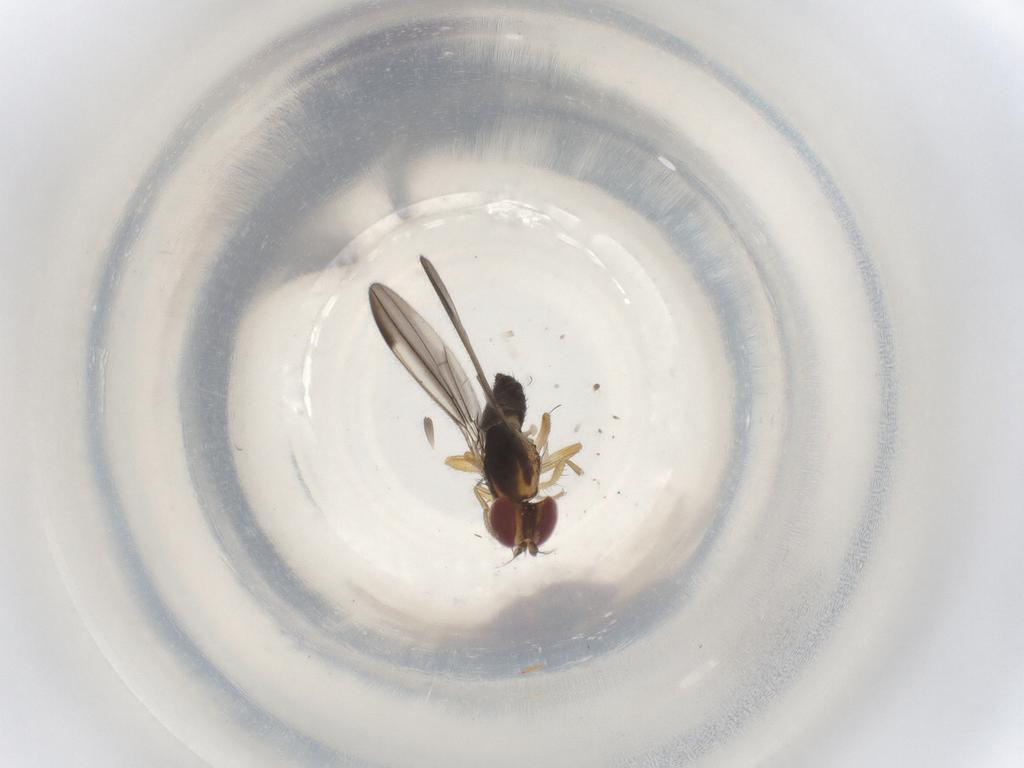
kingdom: Animalia
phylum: Arthropoda
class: Insecta
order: Diptera
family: Anthomyzidae
